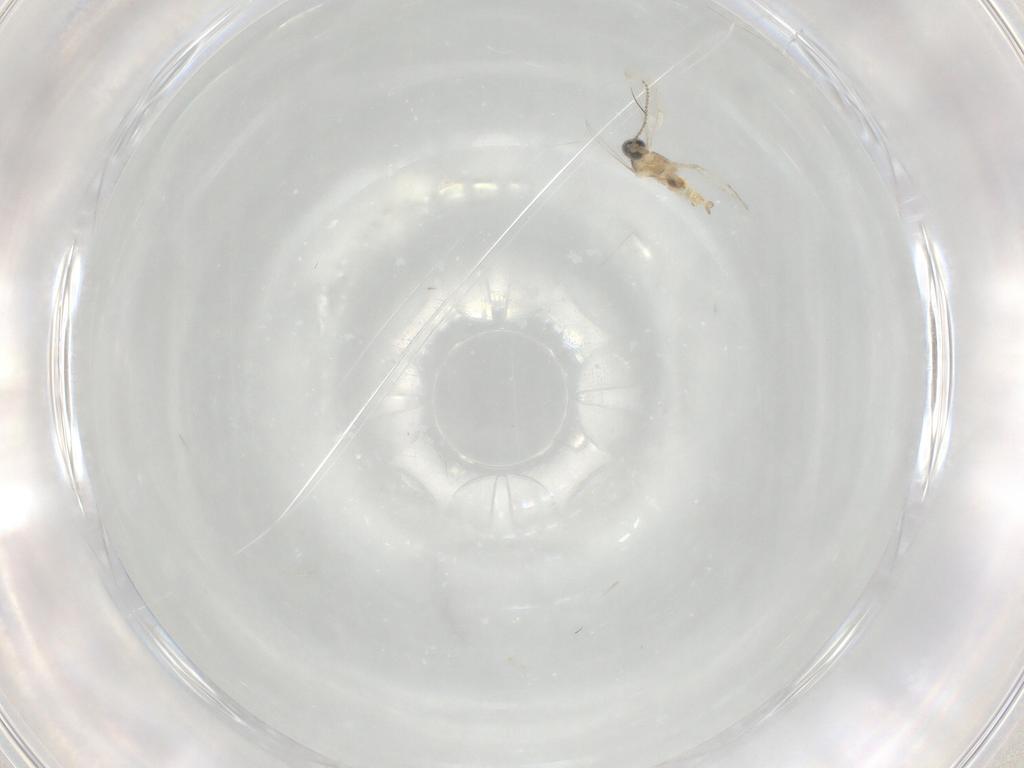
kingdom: Animalia
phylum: Arthropoda
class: Insecta
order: Diptera
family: Cecidomyiidae
